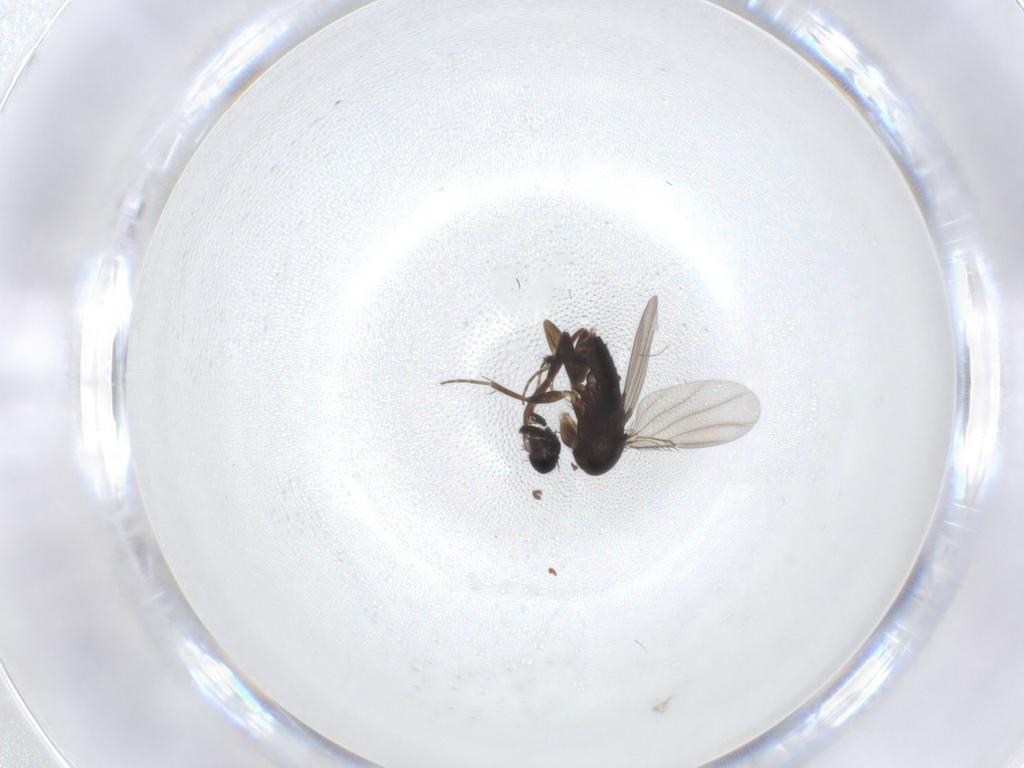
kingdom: Animalia
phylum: Arthropoda
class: Insecta
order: Diptera
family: Phoridae
